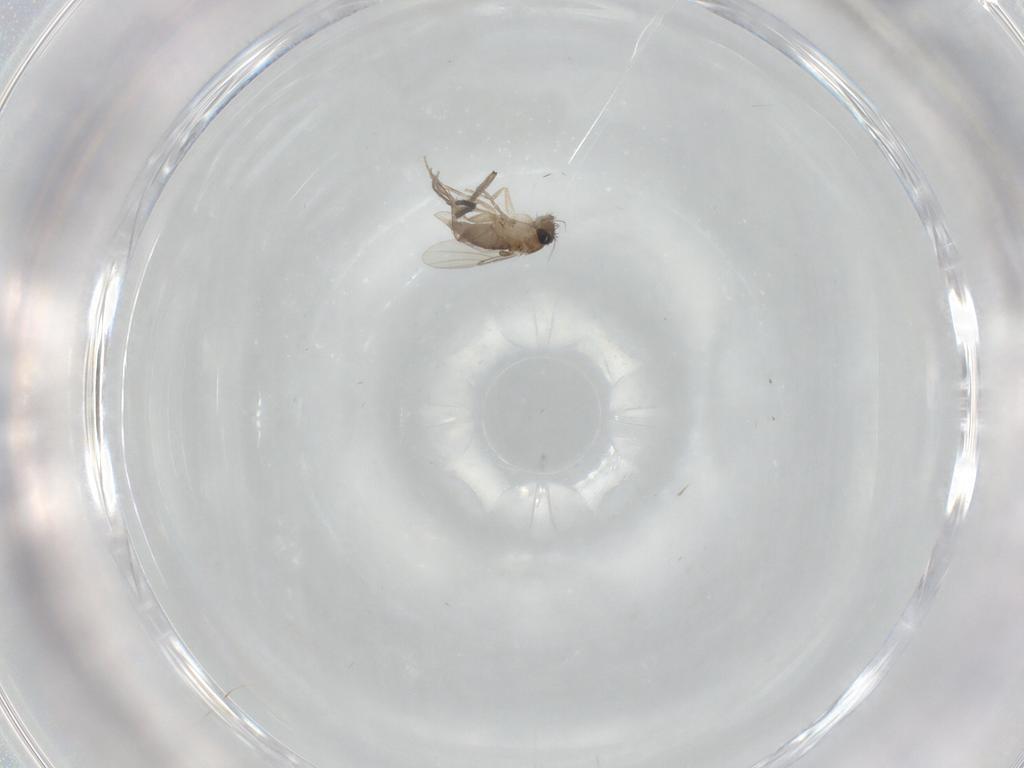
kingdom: Animalia
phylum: Arthropoda
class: Insecta
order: Diptera
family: Phoridae
